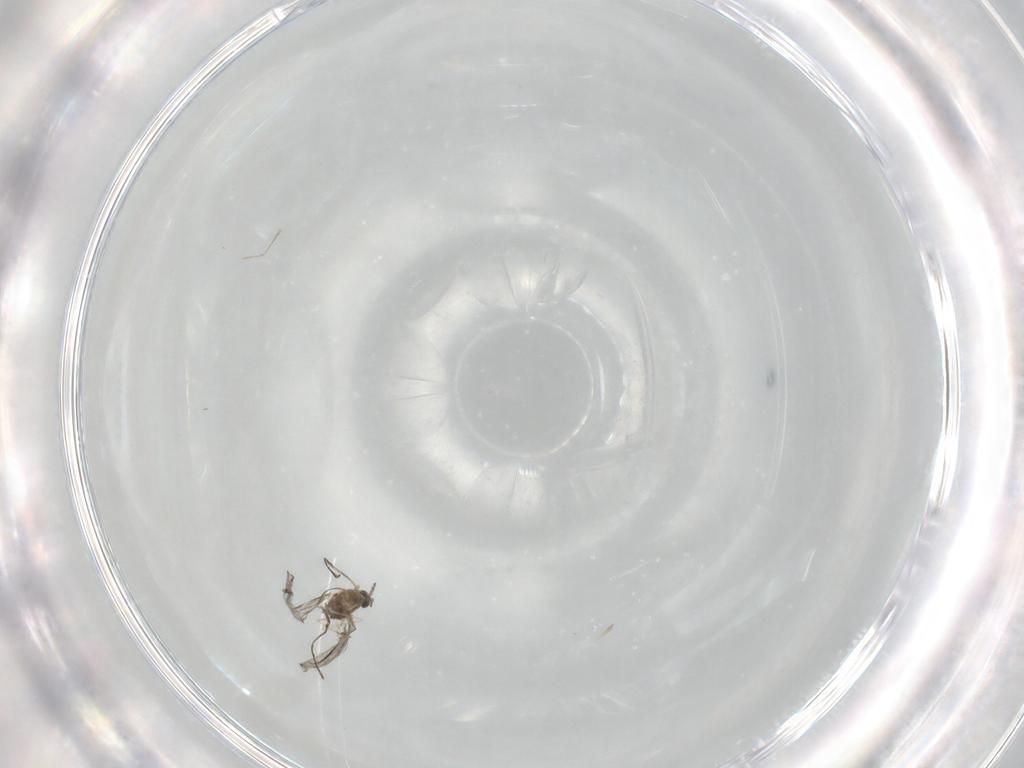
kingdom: Animalia
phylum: Arthropoda
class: Insecta
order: Diptera
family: Cecidomyiidae
